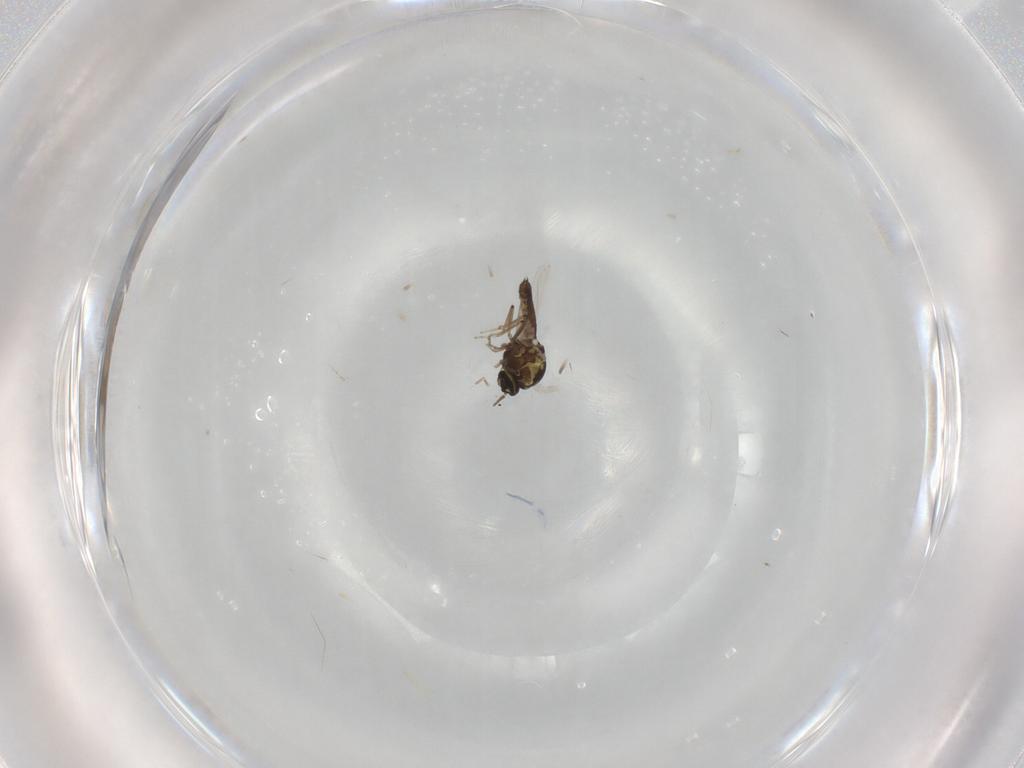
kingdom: Animalia
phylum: Arthropoda
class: Insecta
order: Diptera
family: Ceratopogonidae
